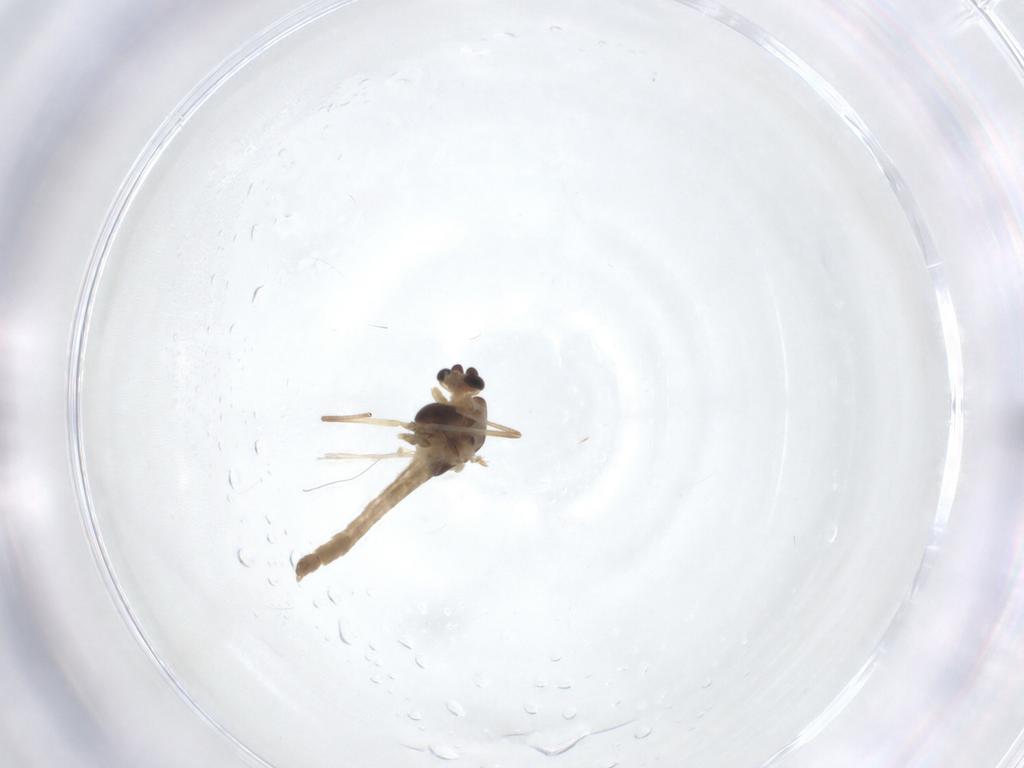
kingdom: Animalia
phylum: Arthropoda
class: Insecta
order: Diptera
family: Chironomidae
